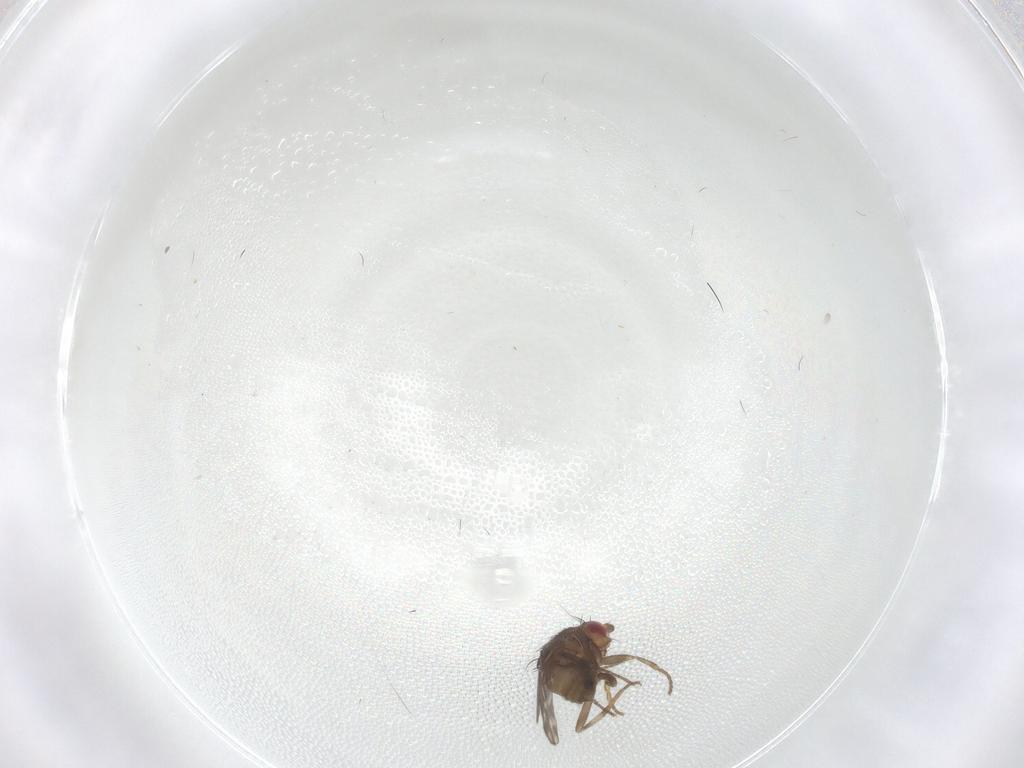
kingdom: Animalia
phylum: Arthropoda
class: Insecta
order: Diptera
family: Sphaeroceridae
